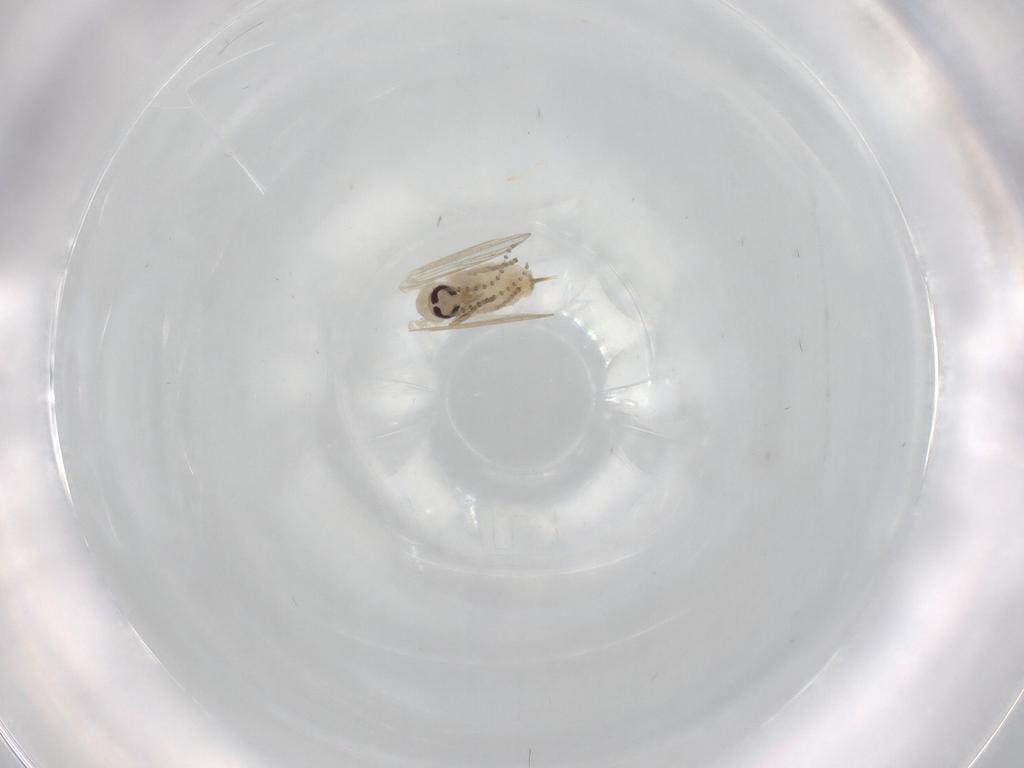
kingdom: Animalia
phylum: Arthropoda
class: Insecta
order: Diptera
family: Psychodidae
